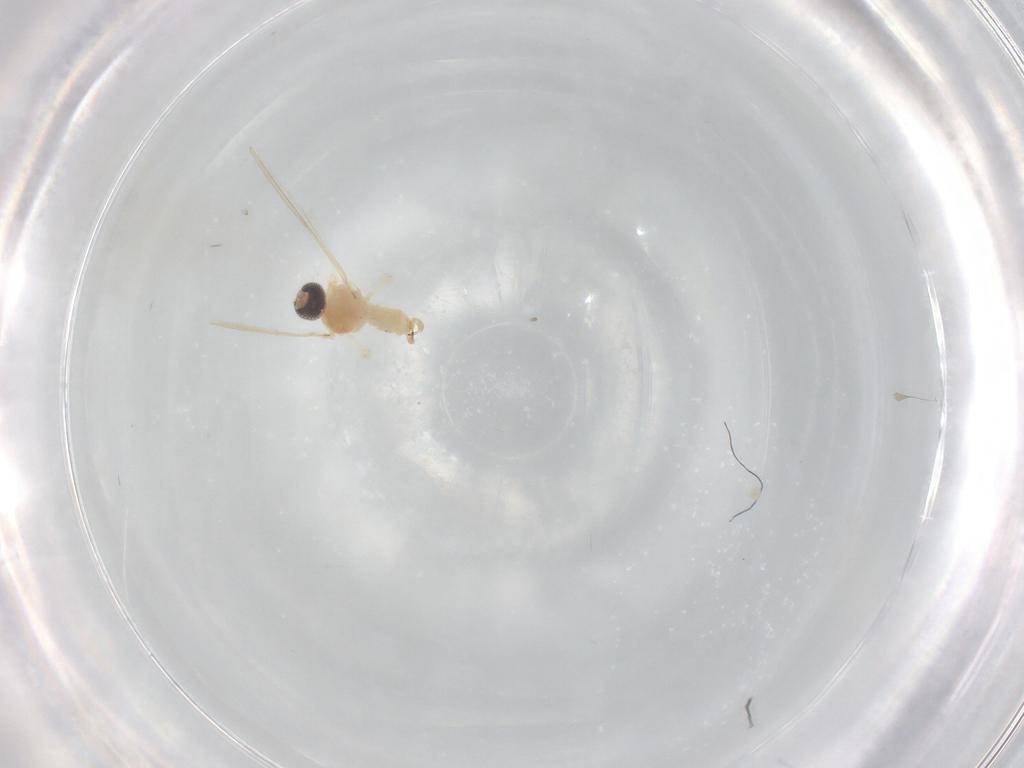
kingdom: Animalia
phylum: Arthropoda
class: Insecta
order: Diptera
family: Cecidomyiidae
